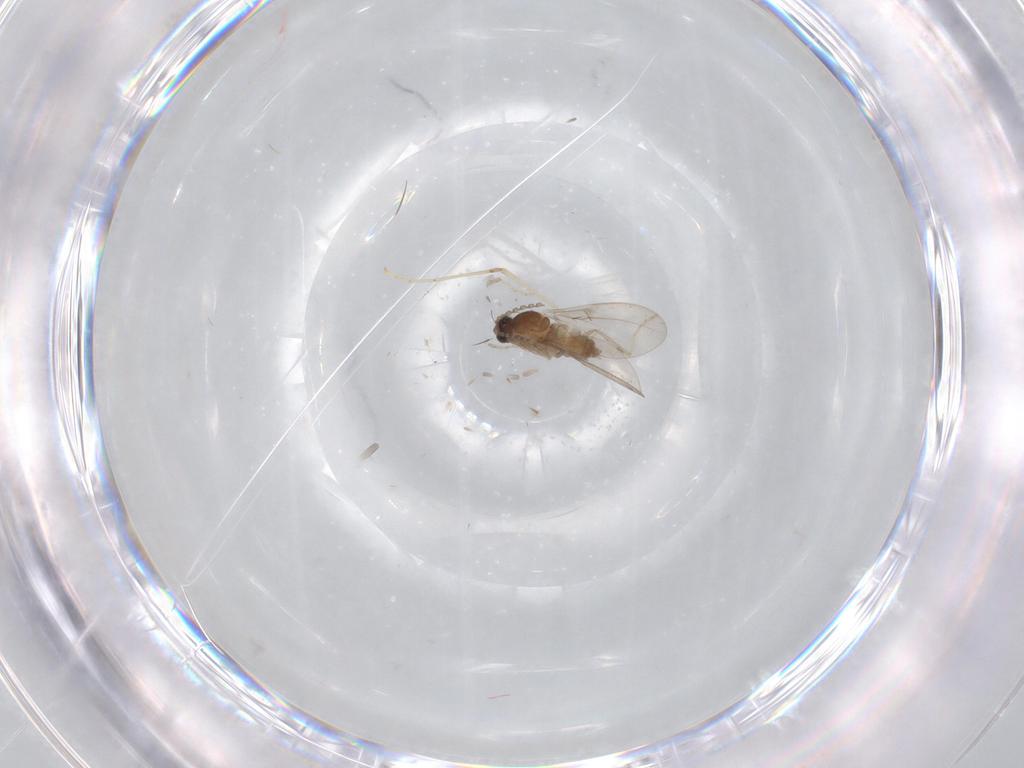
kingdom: Animalia
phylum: Arthropoda
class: Insecta
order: Diptera
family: Cecidomyiidae
